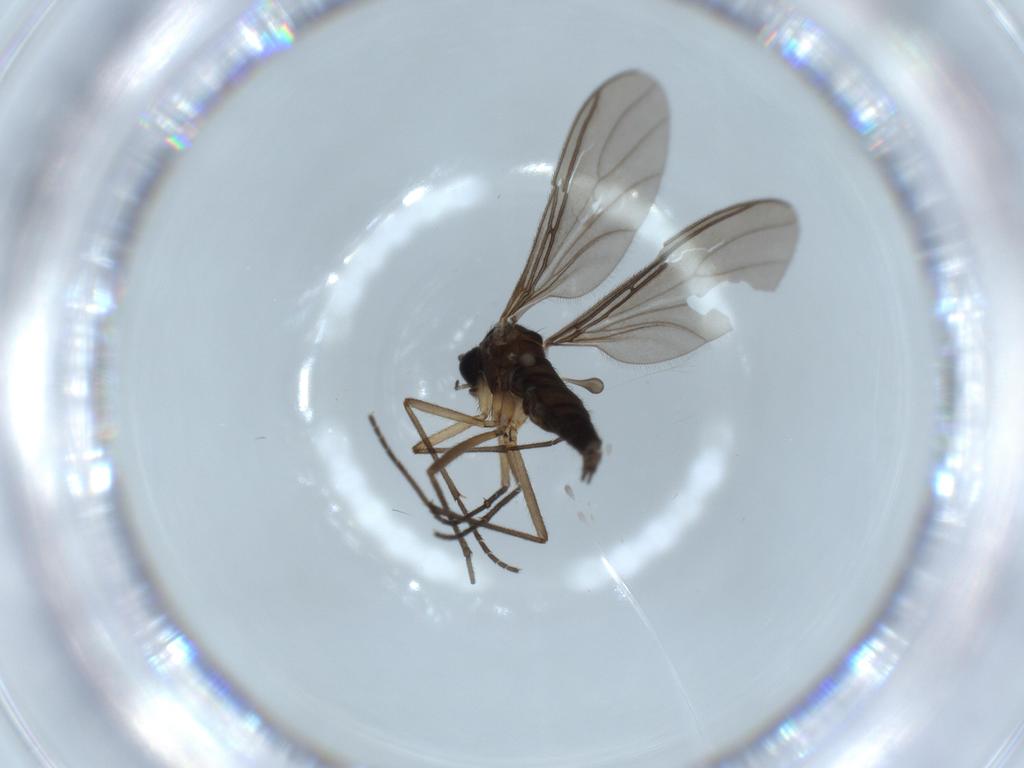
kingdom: Animalia
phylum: Arthropoda
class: Insecta
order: Diptera
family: Sciaridae
